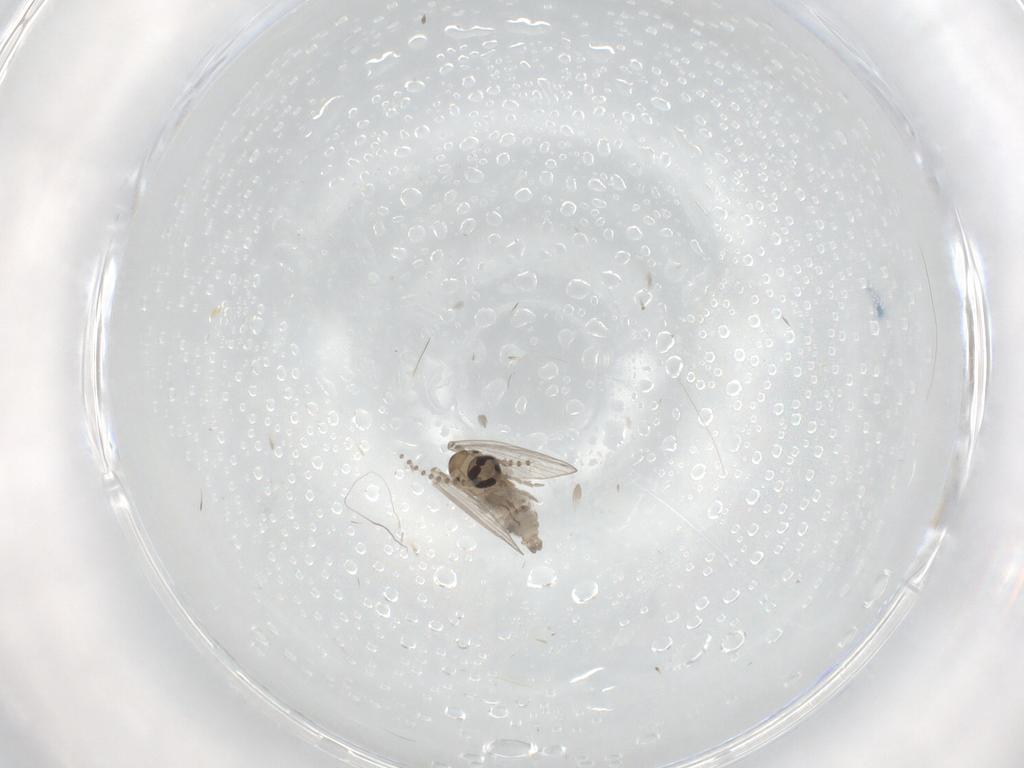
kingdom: Animalia
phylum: Arthropoda
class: Insecta
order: Diptera
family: Psychodidae
